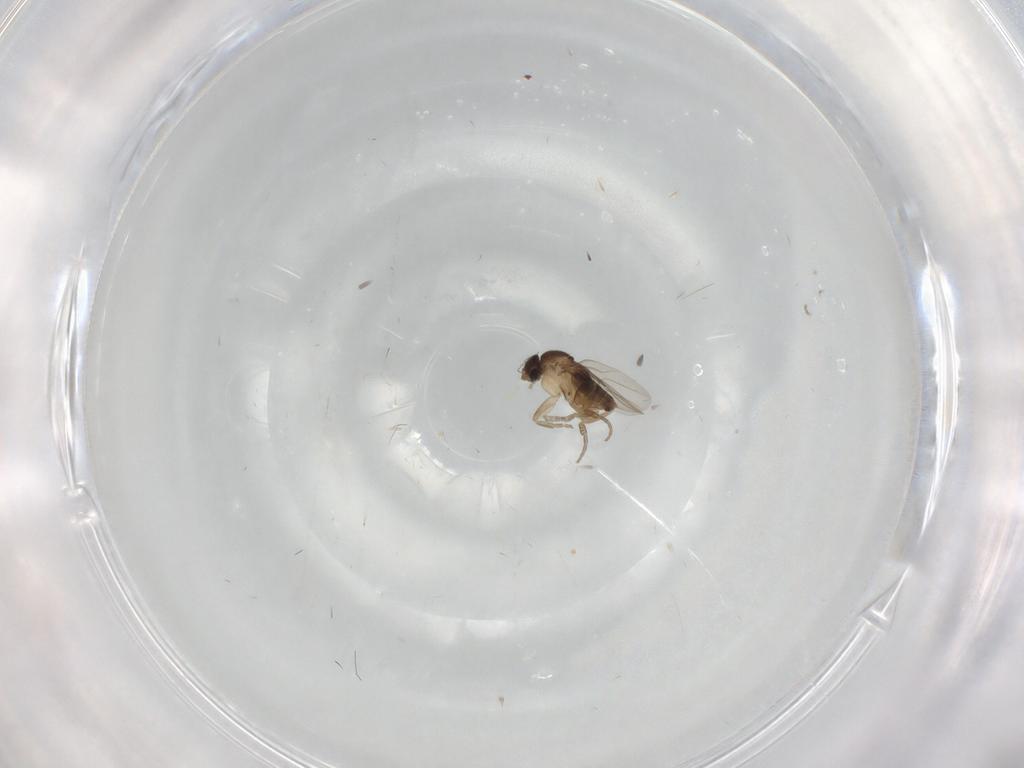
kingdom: Animalia
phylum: Arthropoda
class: Insecta
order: Diptera
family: Phoridae
